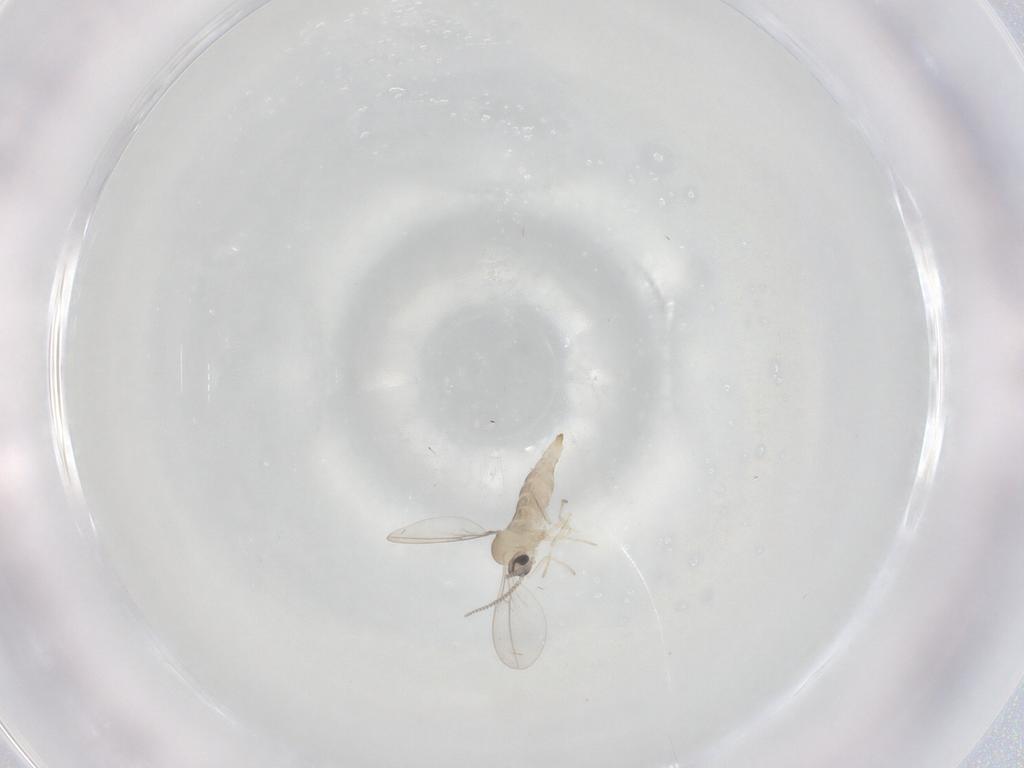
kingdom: Animalia
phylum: Arthropoda
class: Insecta
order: Diptera
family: Cecidomyiidae
